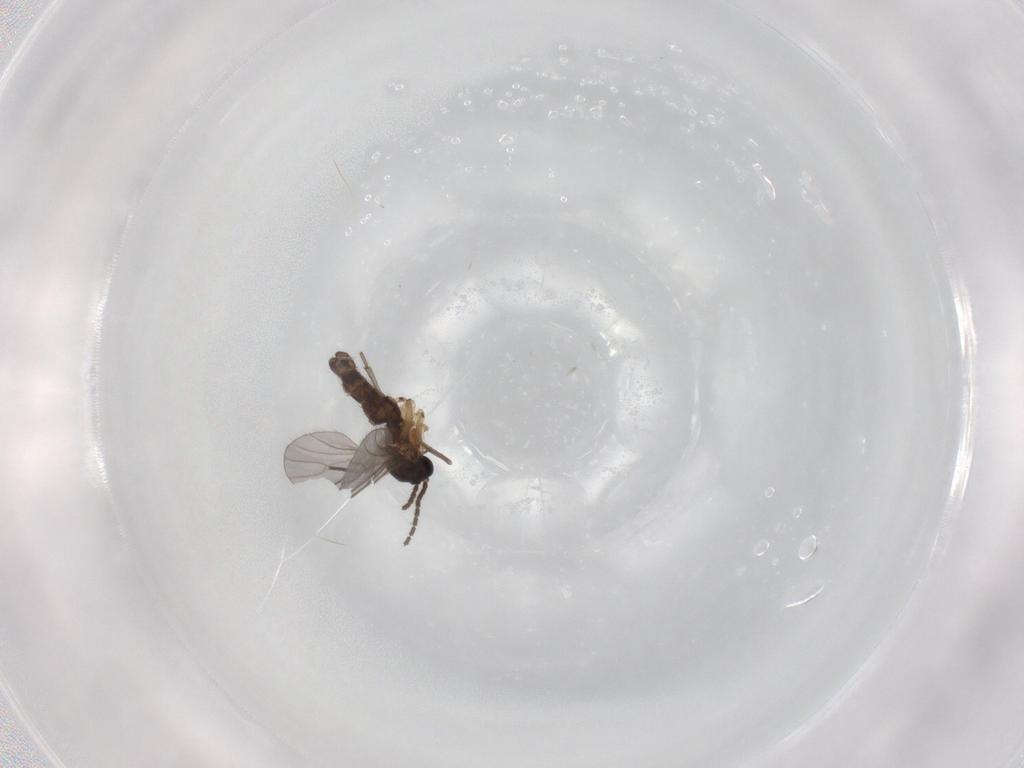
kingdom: Animalia
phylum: Arthropoda
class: Insecta
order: Diptera
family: Sciaridae
